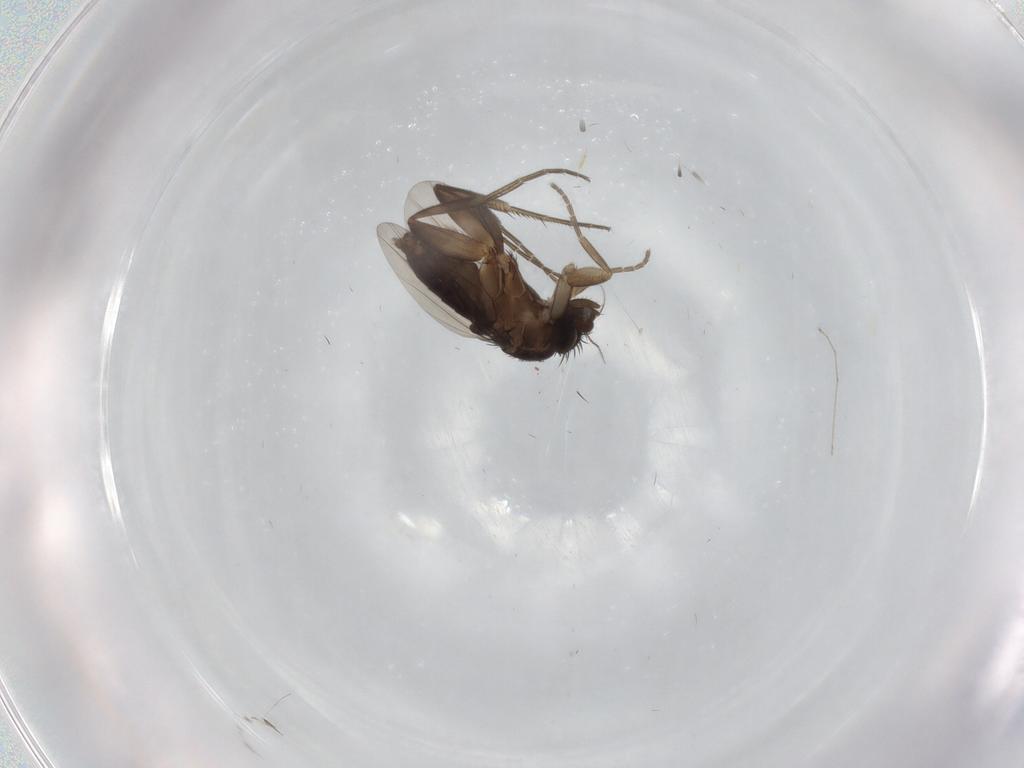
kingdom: Animalia
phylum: Arthropoda
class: Insecta
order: Diptera
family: Phoridae
